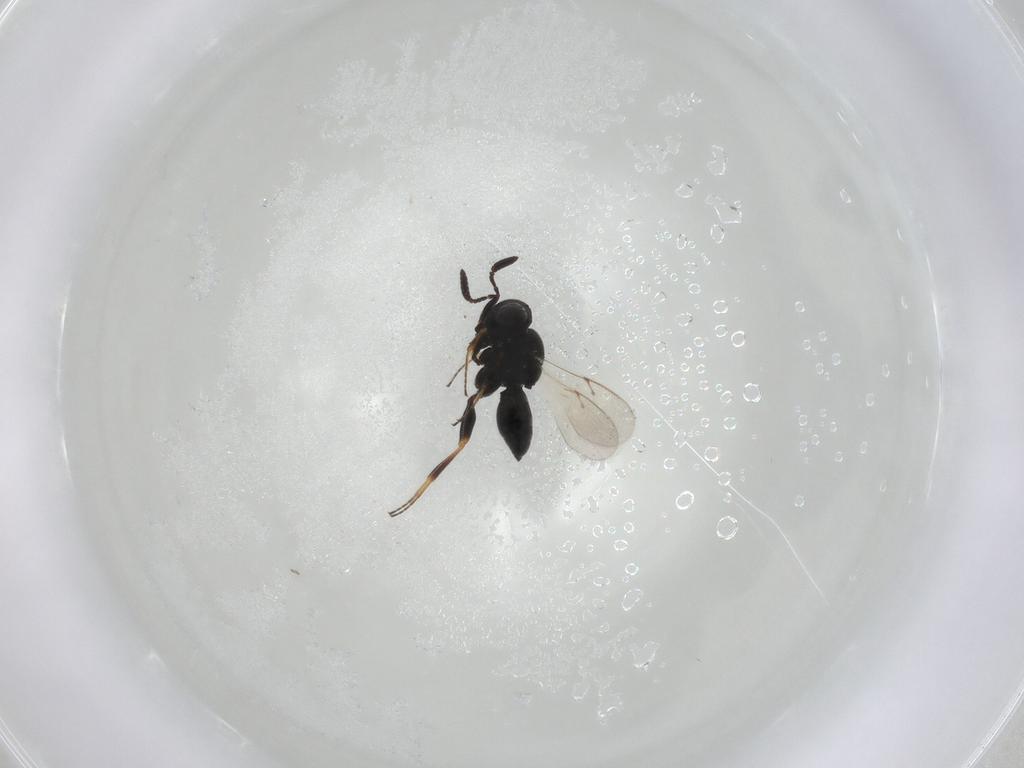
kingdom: Animalia
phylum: Arthropoda
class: Insecta
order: Hymenoptera
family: Scelionidae
